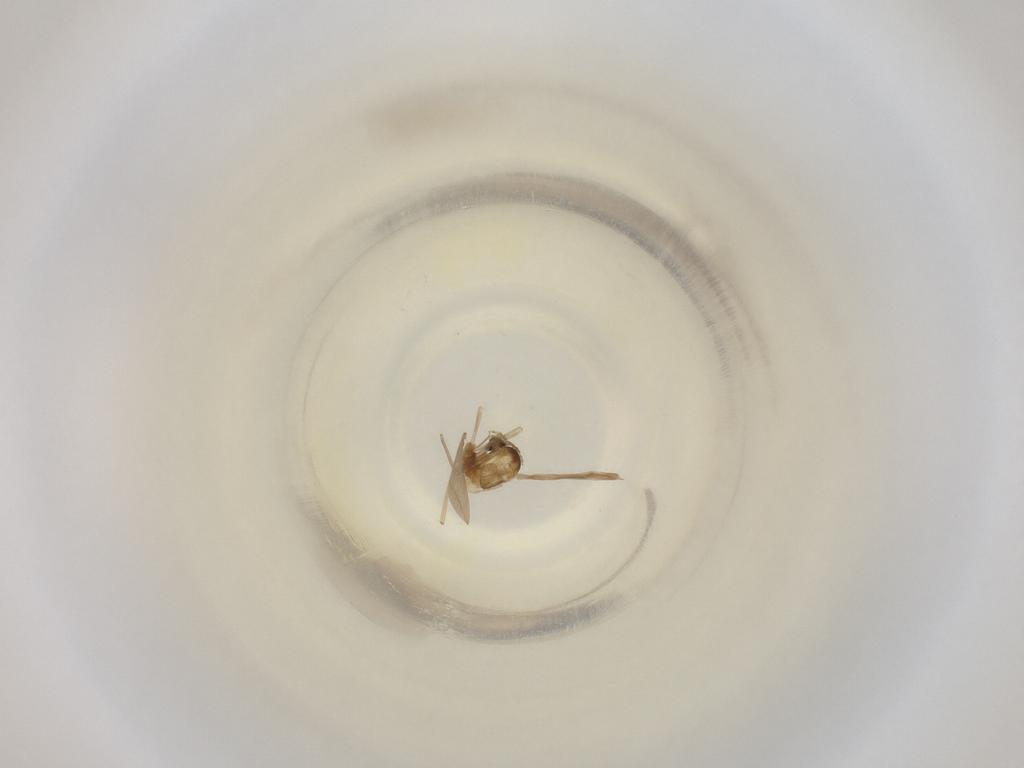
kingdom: Animalia
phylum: Arthropoda
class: Insecta
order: Diptera
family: Cecidomyiidae
